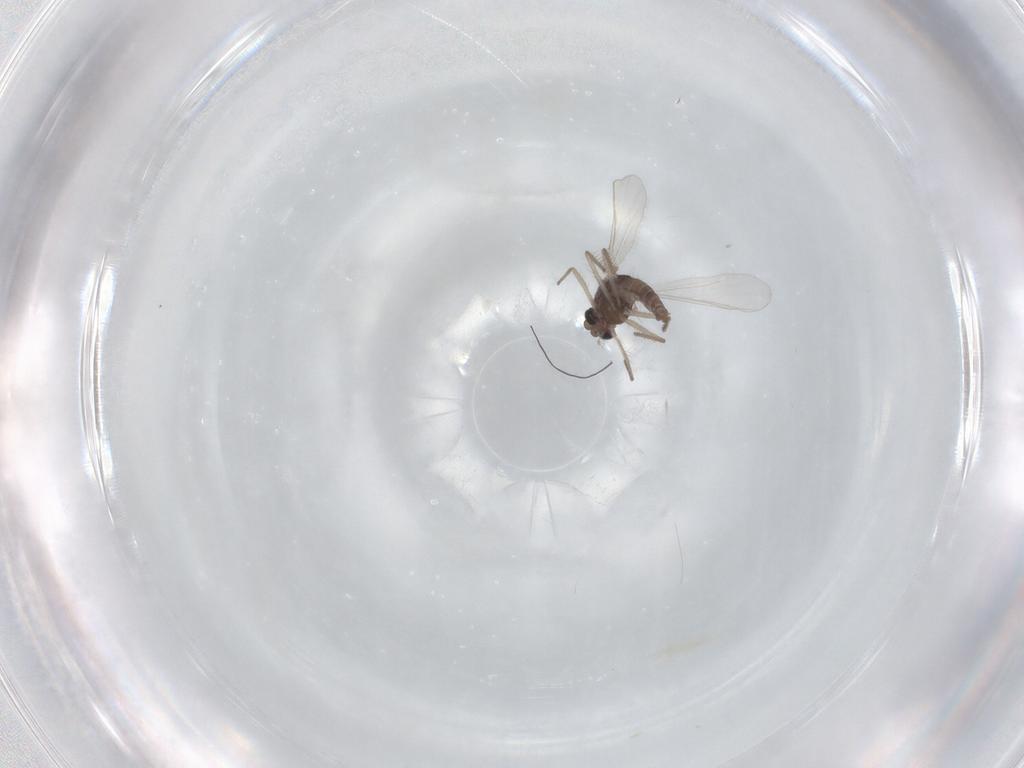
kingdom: Animalia
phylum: Arthropoda
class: Insecta
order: Diptera
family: Chironomidae
